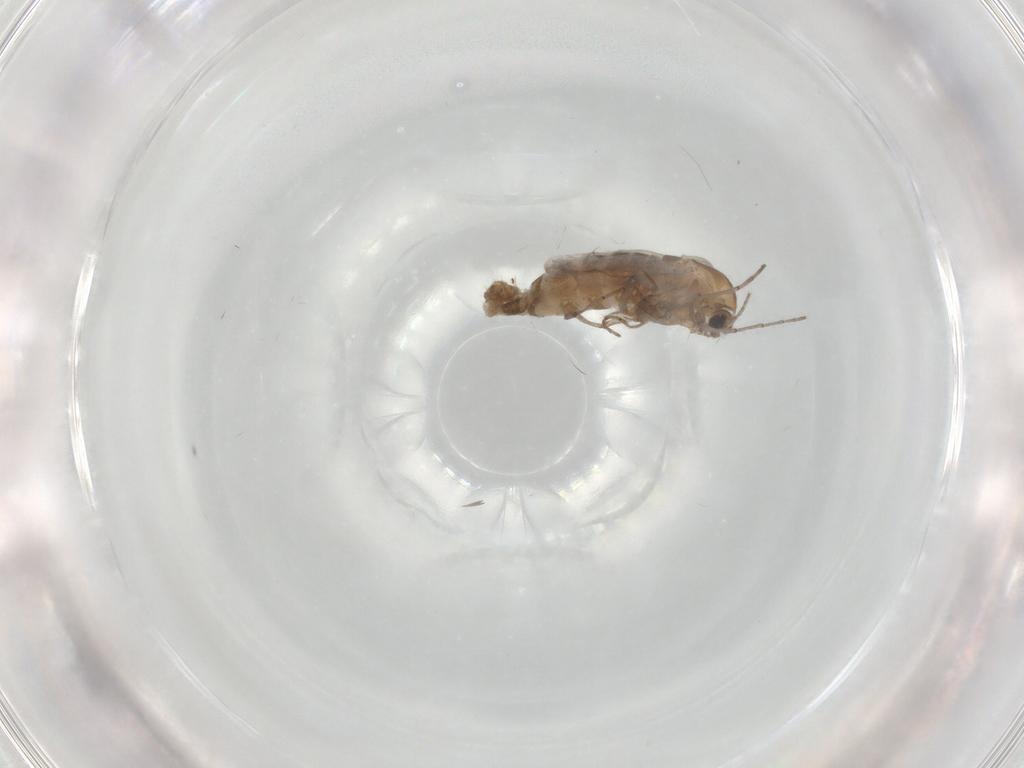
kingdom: Animalia
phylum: Arthropoda
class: Insecta
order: Diptera
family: Chironomidae
